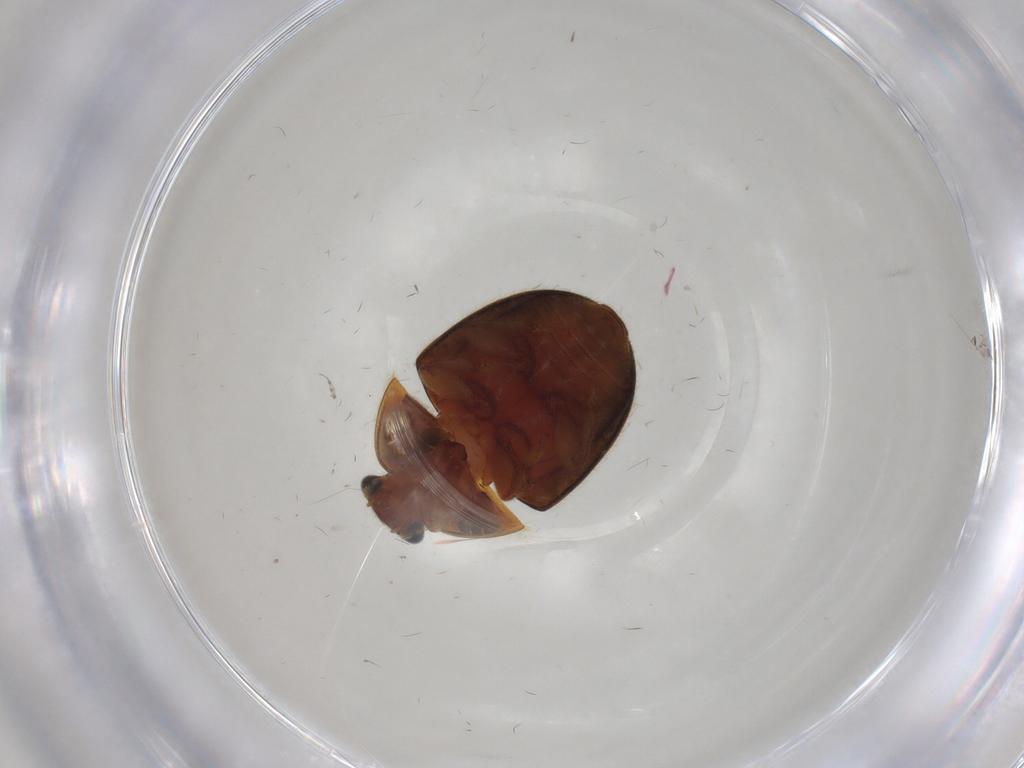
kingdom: Animalia
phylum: Arthropoda
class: Insecta
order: Coleoptera
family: Nitidulidae
